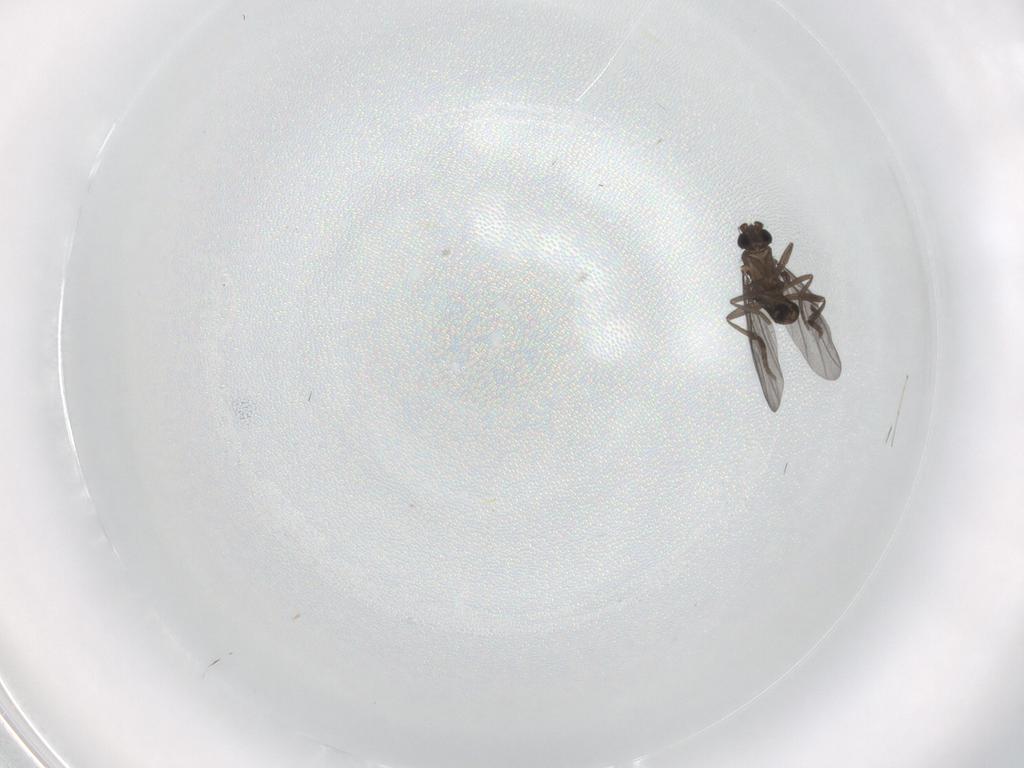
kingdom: Animalia
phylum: Arthropoda
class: Insecta
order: Diptera
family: Phoridae
